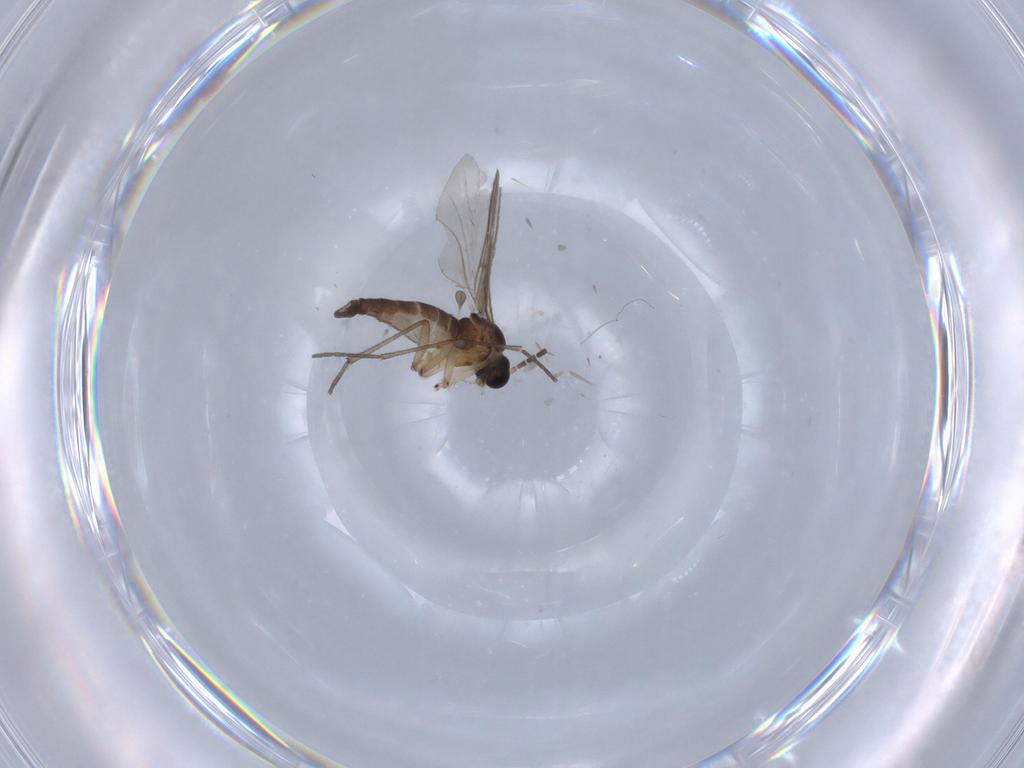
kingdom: Animalia
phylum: Arthropoda
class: Insecta
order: Diptera
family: Sciaridae
